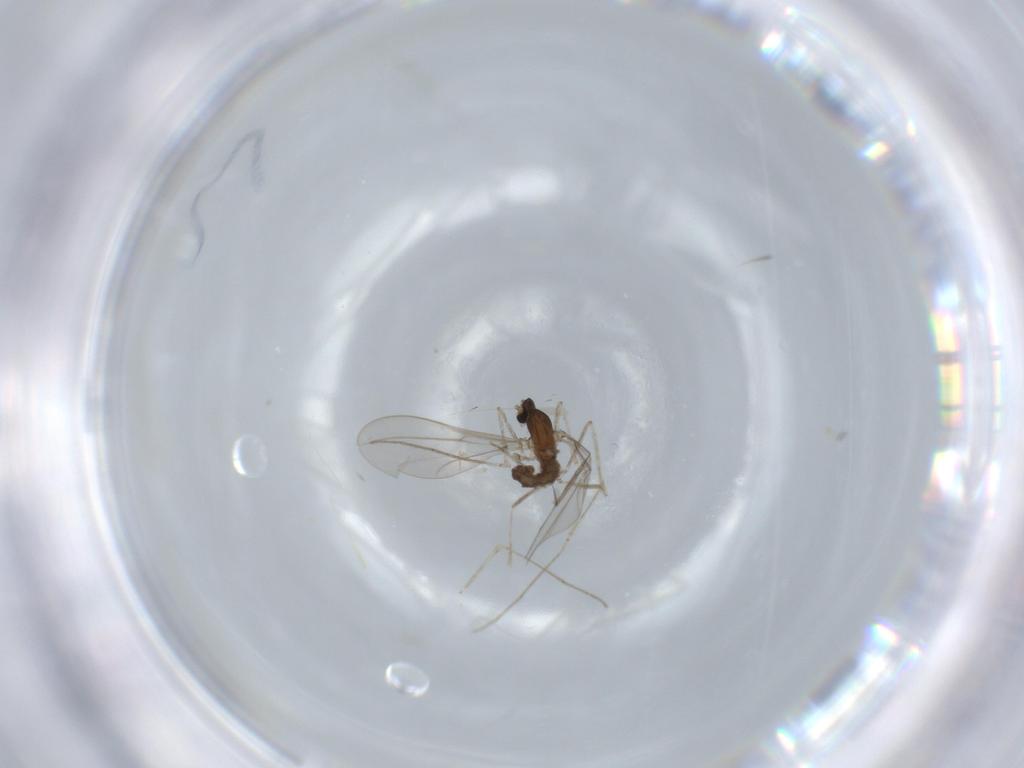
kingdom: Animalia
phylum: Arthropoda
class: Insecta
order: Diptera
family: Cecidomyiidae
